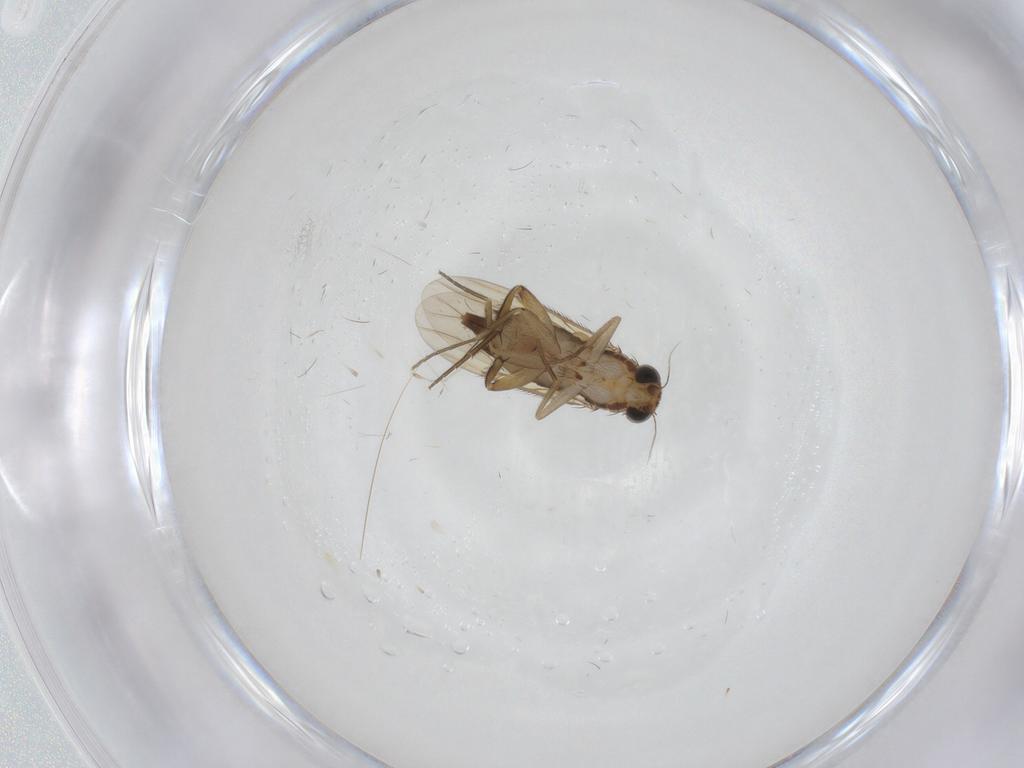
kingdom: Animalia
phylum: Arthropoda
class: Insecta
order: Diptera
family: Phoridae
